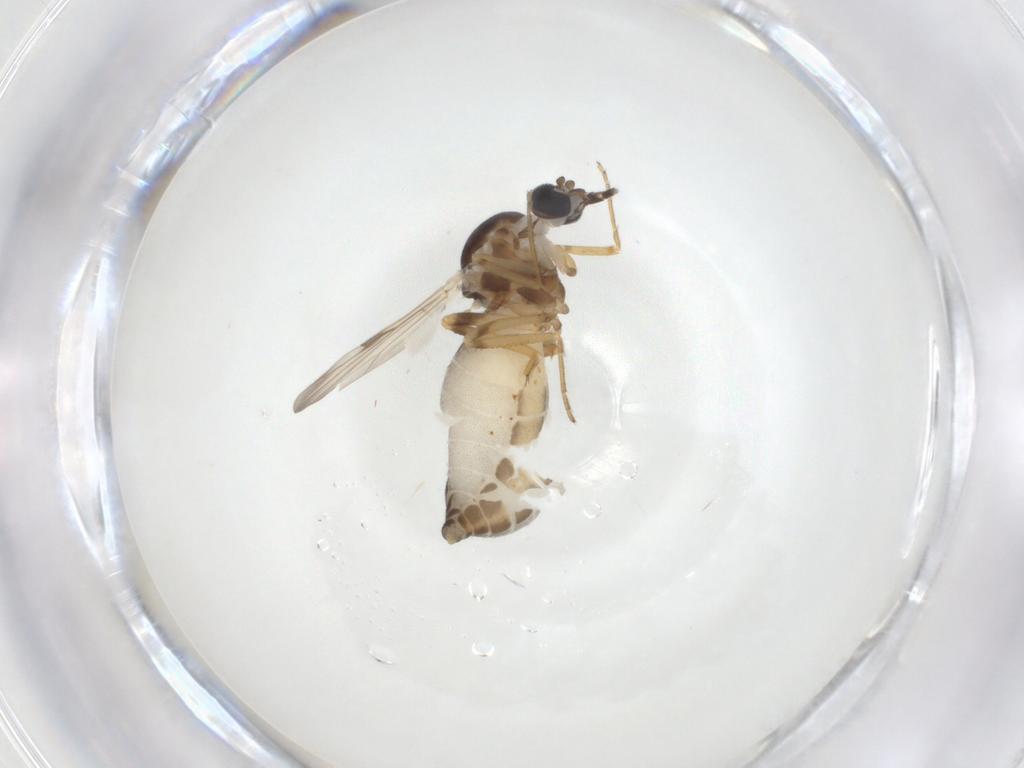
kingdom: Animalia
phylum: Arthropoda
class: Insecta
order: Diptera
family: Ceratopogonidae
